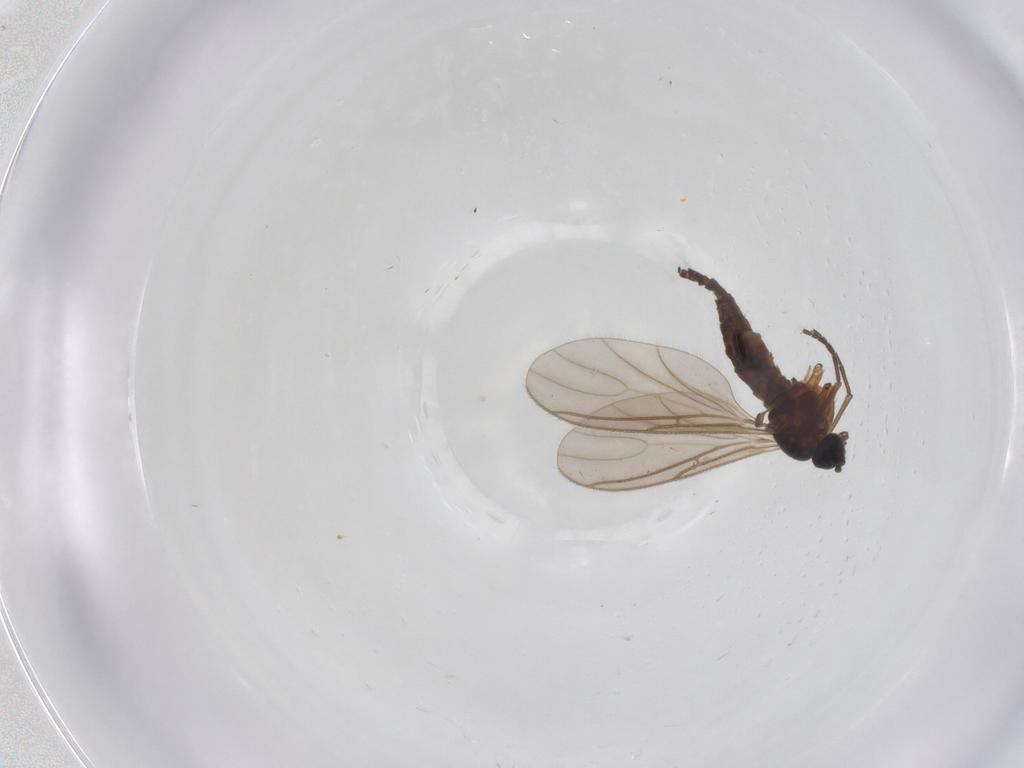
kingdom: Animalia
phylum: Arthropoda
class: Insecta
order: Diptera
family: Sciaridae
